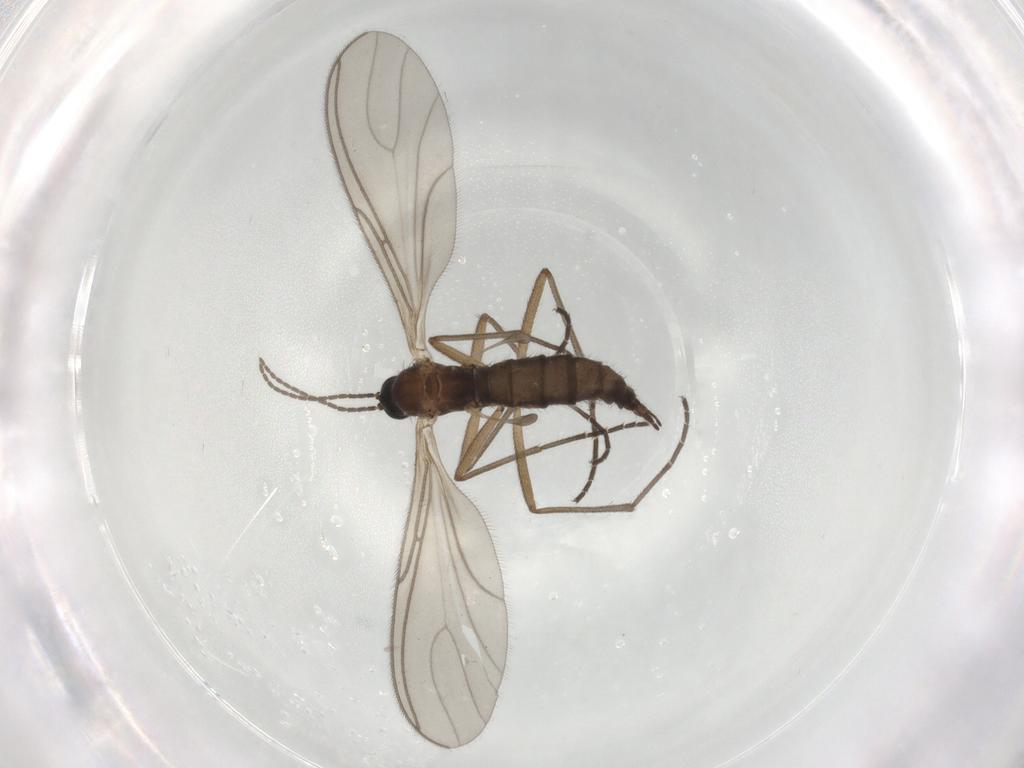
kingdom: Animalia
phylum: Arthropoda
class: Insecta
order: Diptera
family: Sciaridae
